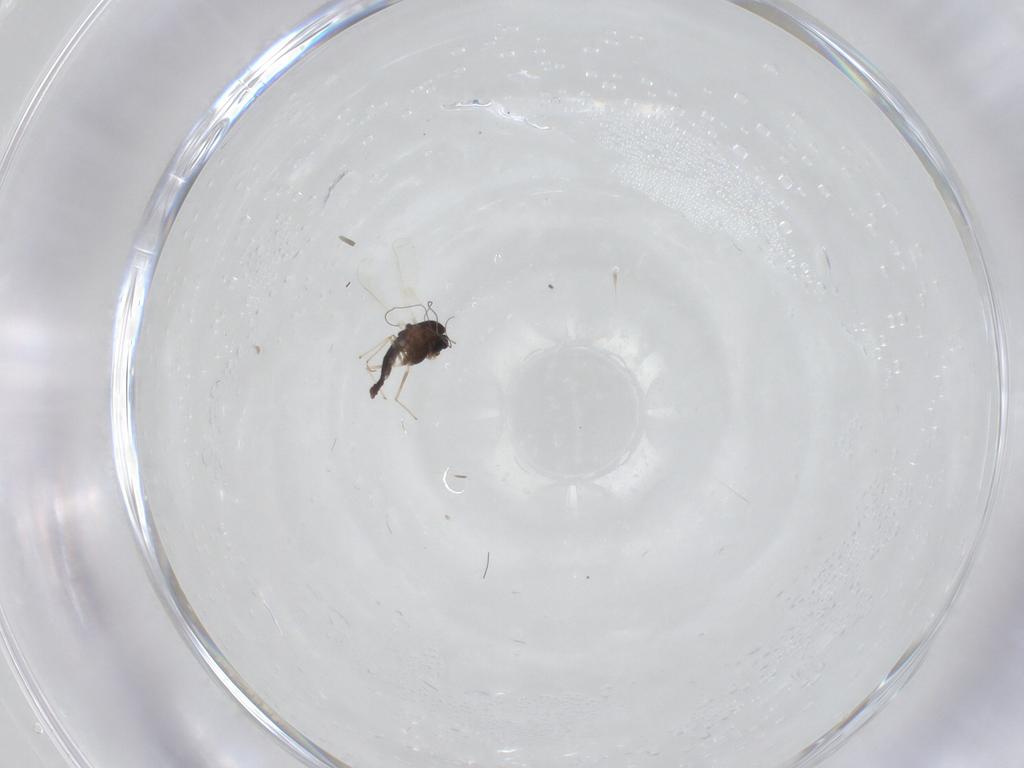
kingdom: Animalia
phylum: Arthropoda
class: Insecta
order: Diptera
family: Chironomidae
